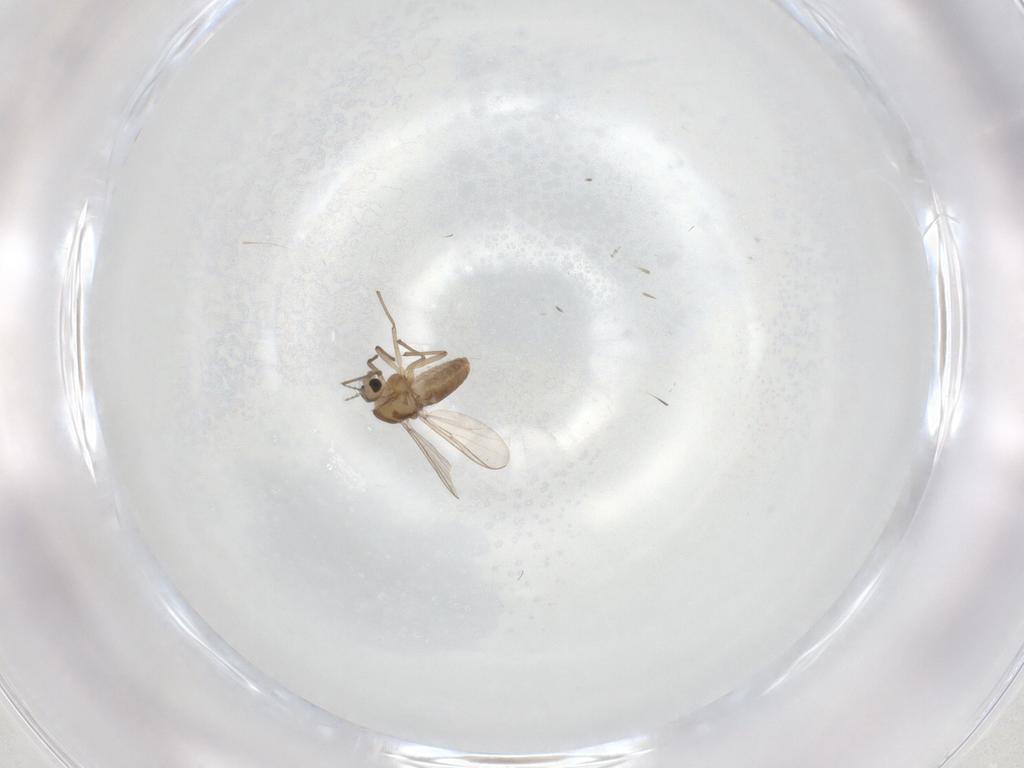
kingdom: Animalia
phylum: Arthropoda
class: Insecta
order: Diptera
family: Chironomidae
